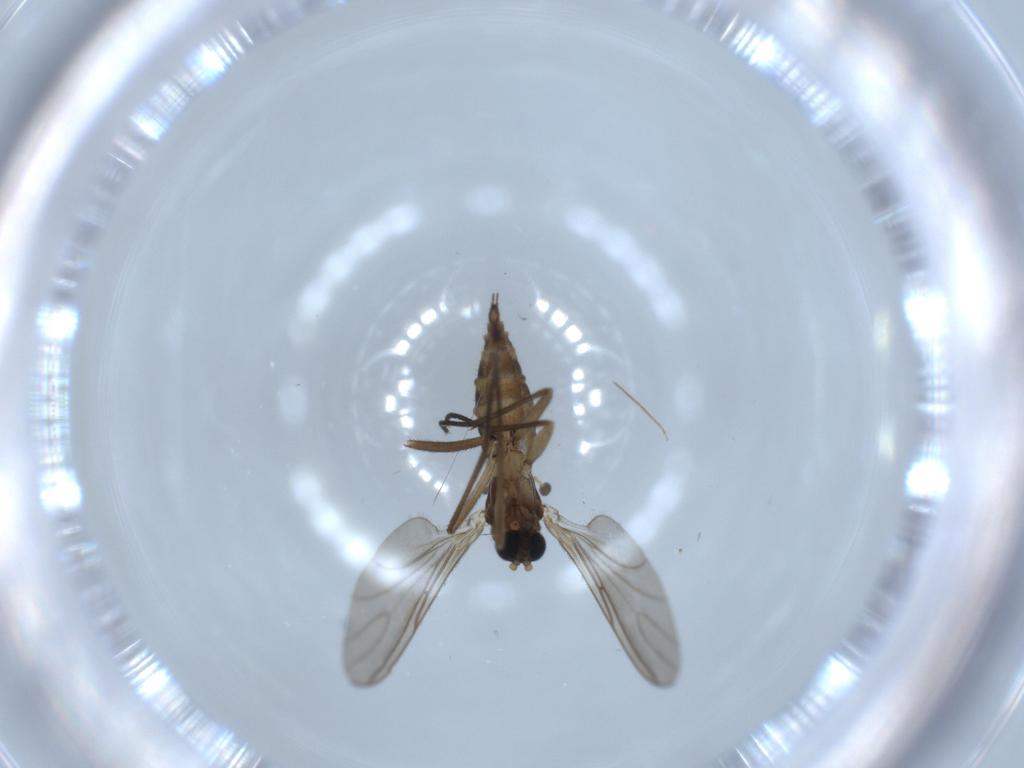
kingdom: Animalia
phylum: Arthropoda
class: Insecta
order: Diptera
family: Sciaridae
